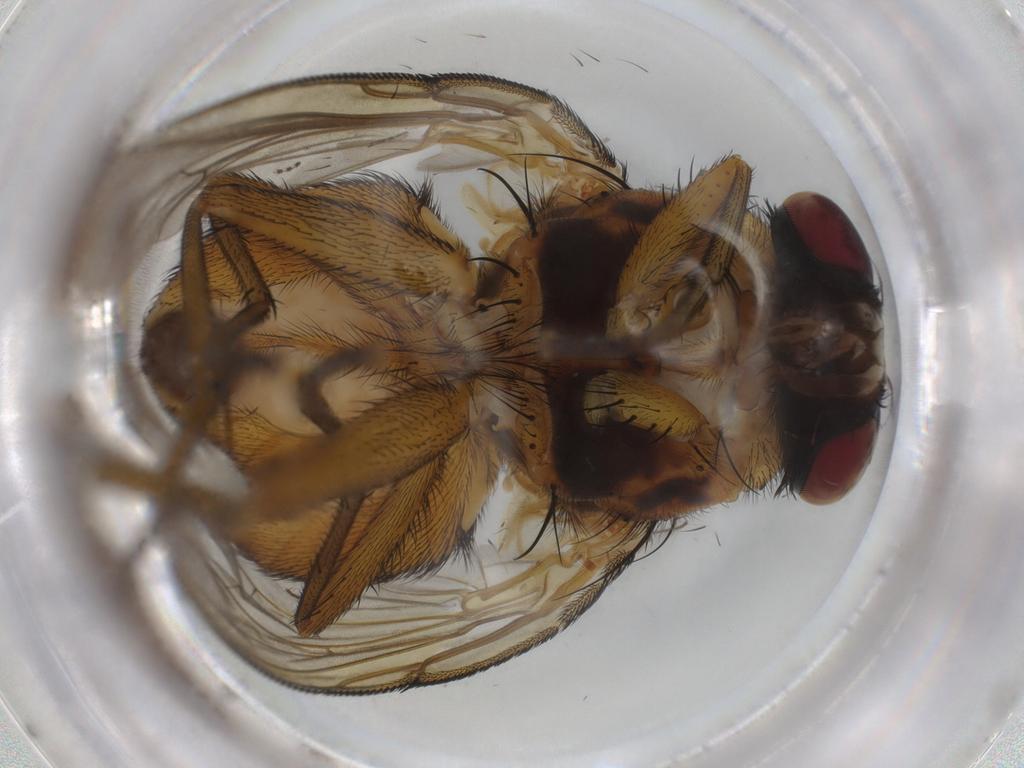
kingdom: Animalia
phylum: Arthropoda
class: Insecta
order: Diptera
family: Muscidae
